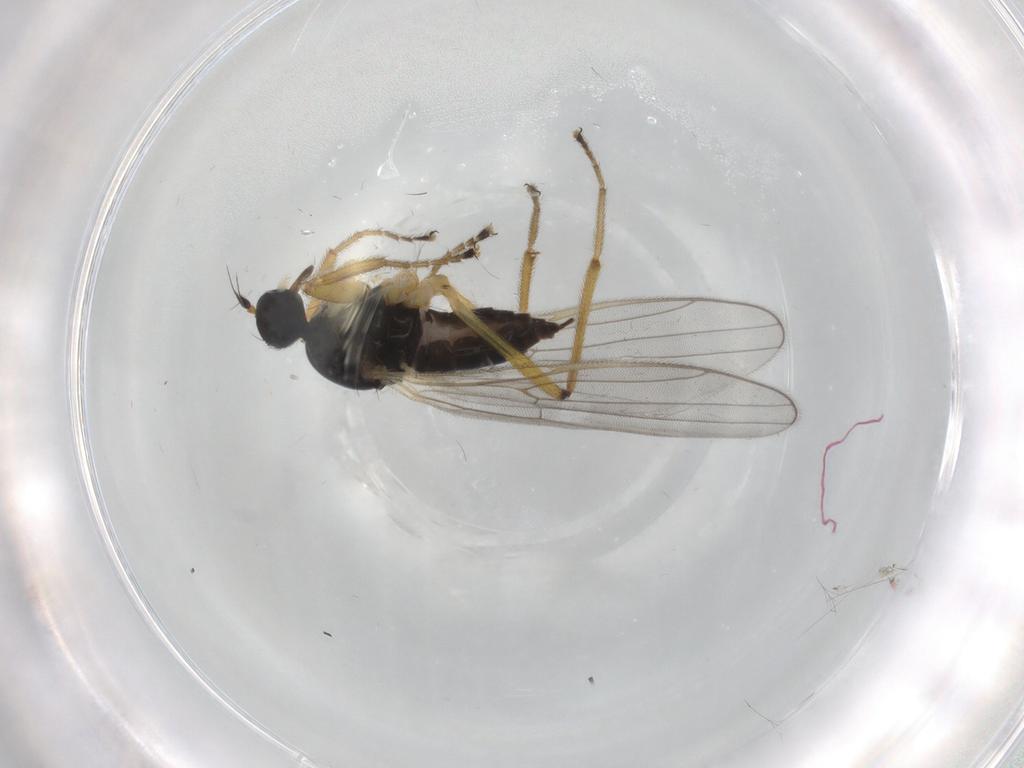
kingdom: Animalia
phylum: Arthropoda
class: Insecta
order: Diptera
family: Hybotidae
